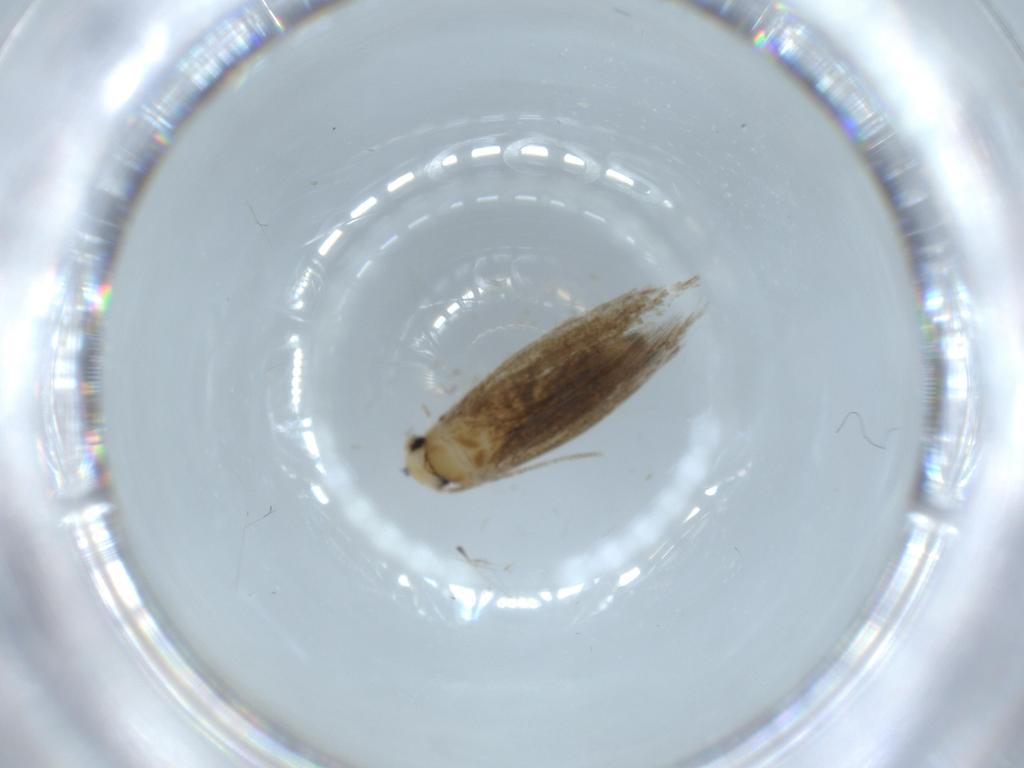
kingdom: Animalia
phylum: Arthropoda
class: Insecta
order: Lepidoptera
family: Tineidae
